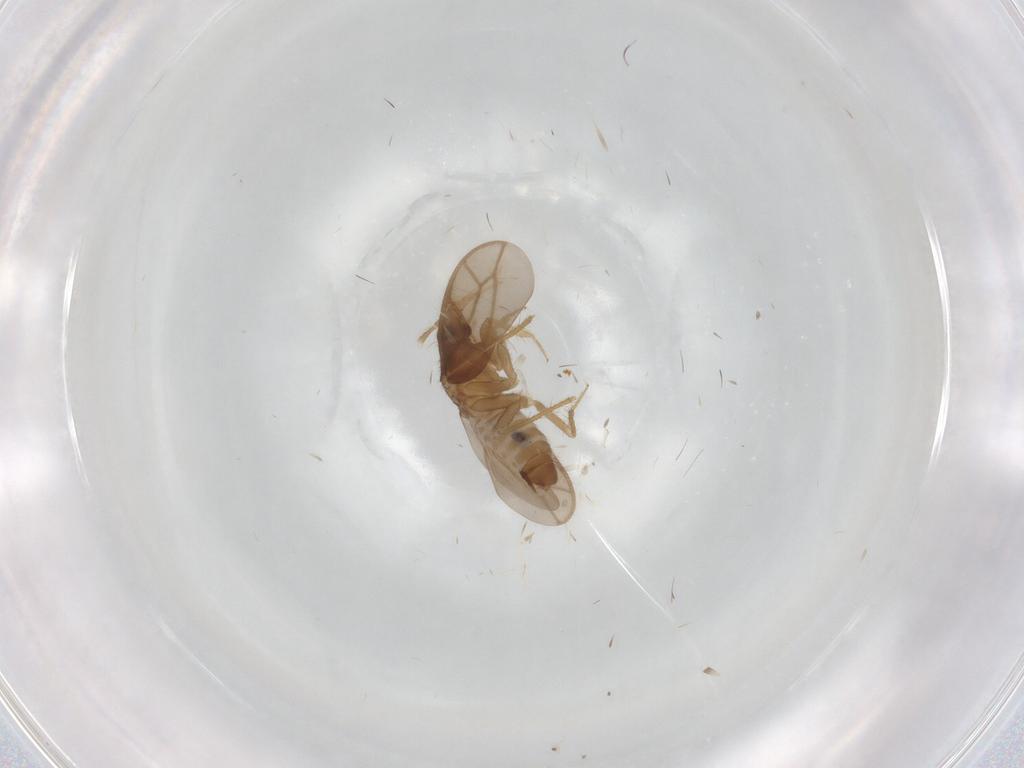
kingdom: Animalia
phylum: Arthropoda
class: Insecta
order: Hemiptera
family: Ceratocombidae
